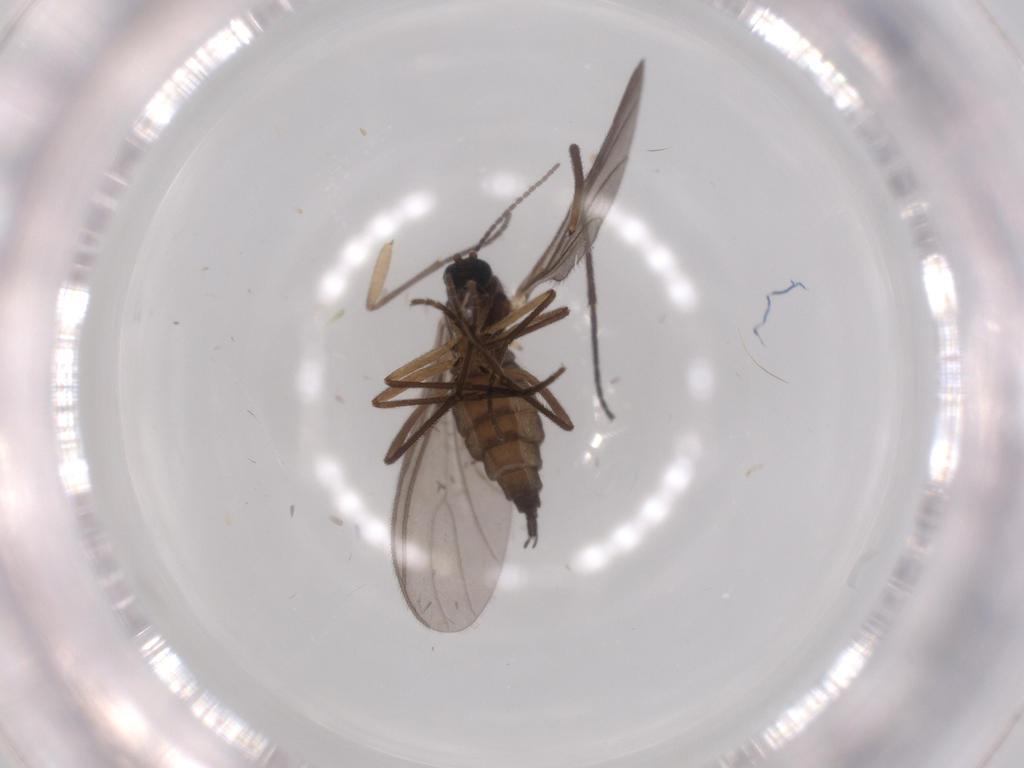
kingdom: Animalia
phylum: Arthropoda
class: Insecta
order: Diptera
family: Sciaridae
